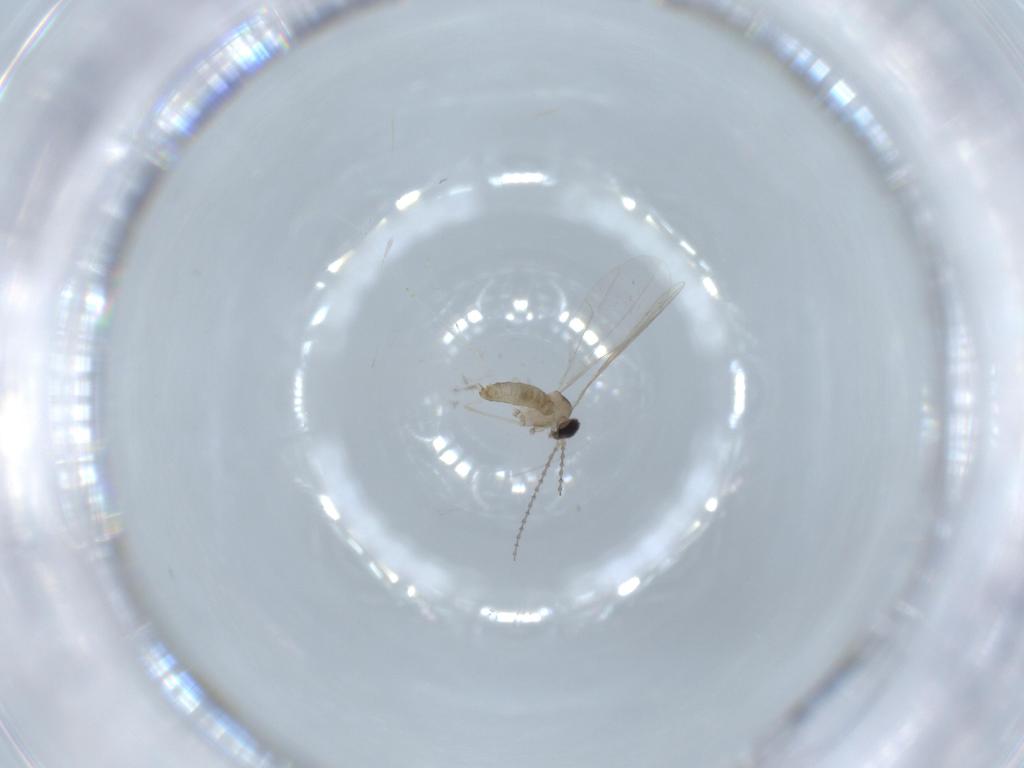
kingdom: Animalia
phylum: Arthropoda
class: Insecta
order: Diptera
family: Cecidomyiidae
